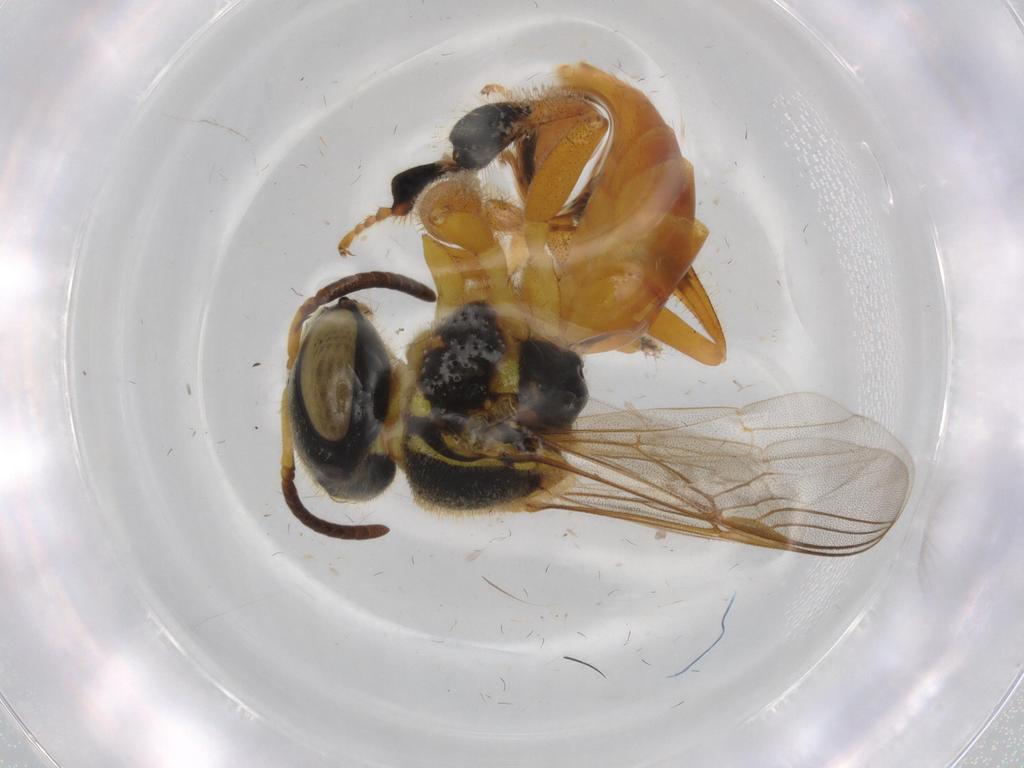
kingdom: Animalia
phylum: Arthropoda
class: Insecta
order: Hymenoptera
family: Apidae
